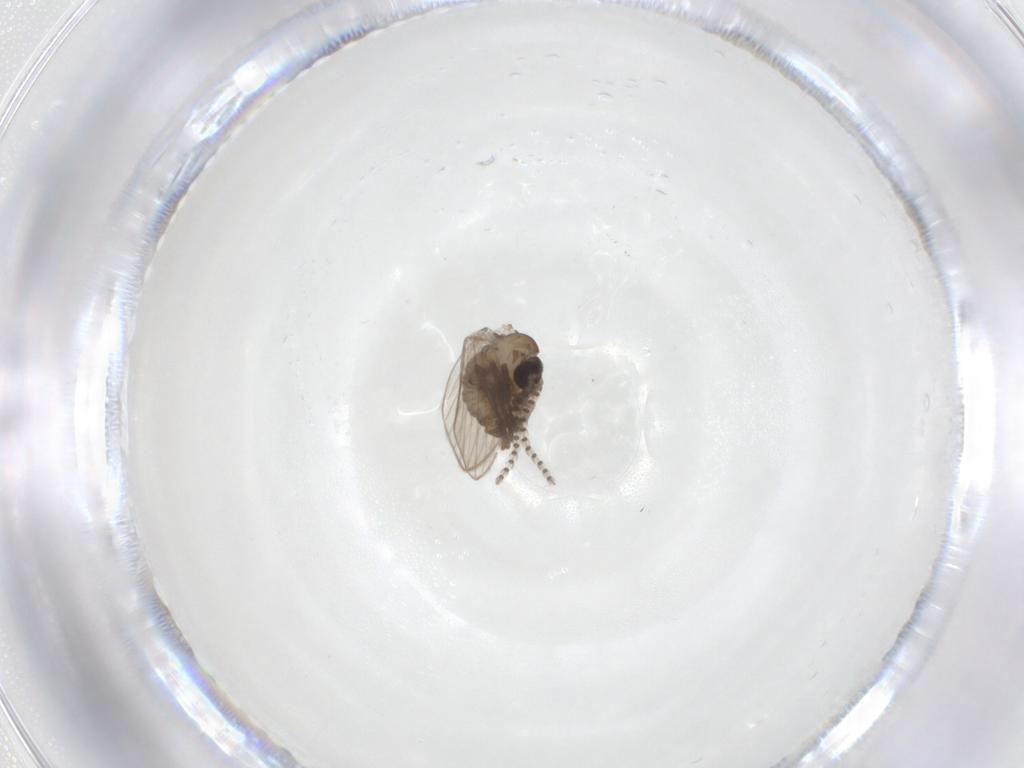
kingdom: Animalia
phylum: Arthropoda
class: Insecta
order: Diptera
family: Psychodidae
